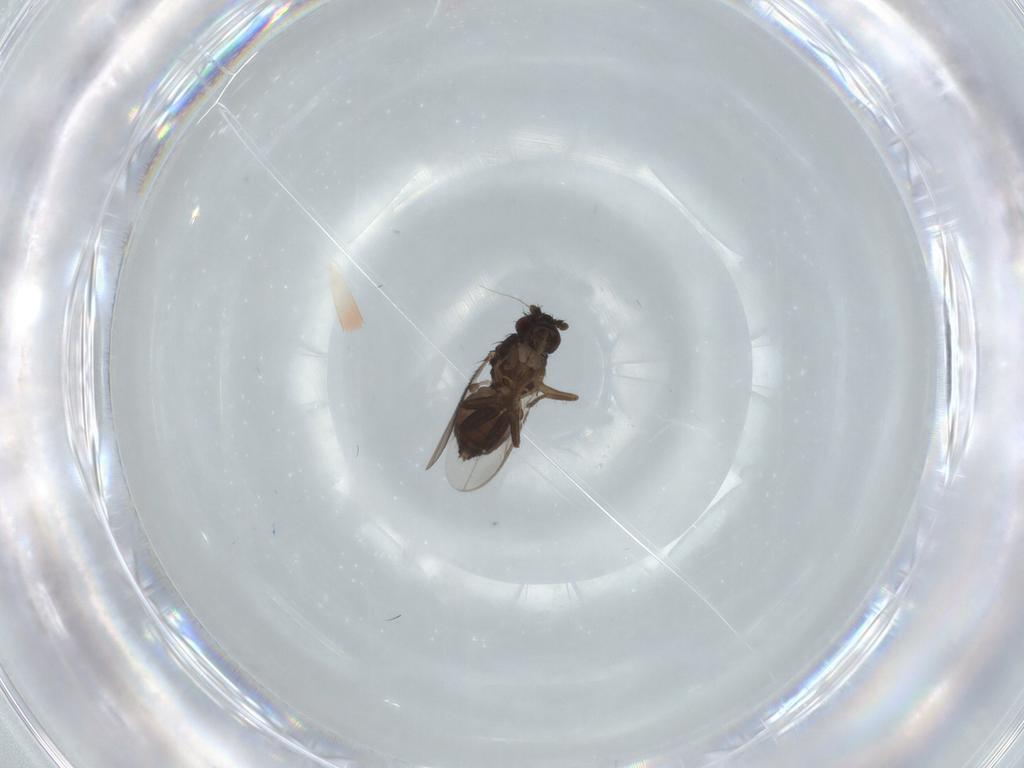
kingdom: Animalia
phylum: Arthropoda
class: Insecta
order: Diptera
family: Sphaeroceridae
